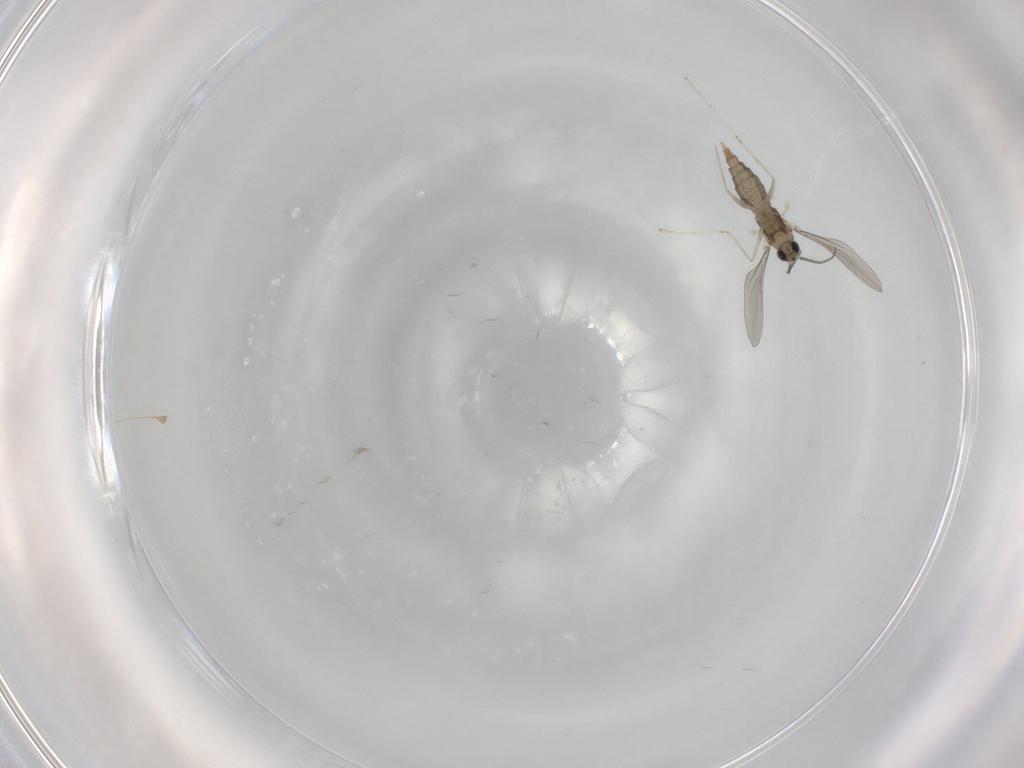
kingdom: Animalia
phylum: Arthropoda
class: Insecta
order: Diptera
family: Cecidomyiidae
